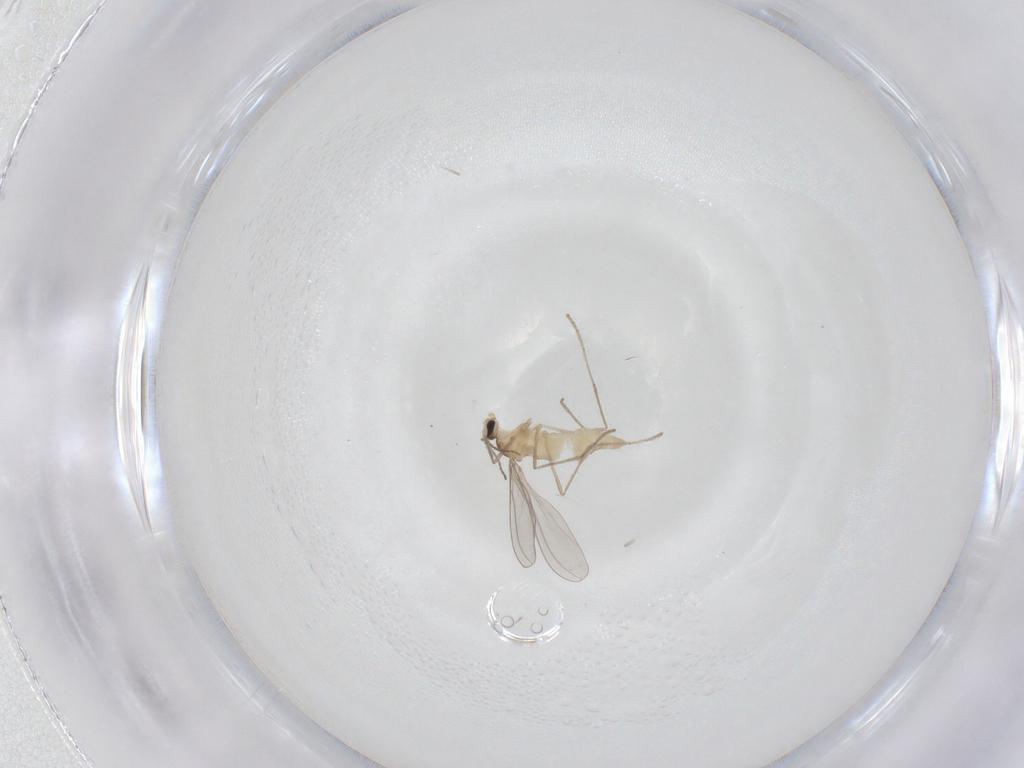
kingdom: Animalia
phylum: Arthropoda
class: Insecta
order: Diptera
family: Cecidomyiidae
